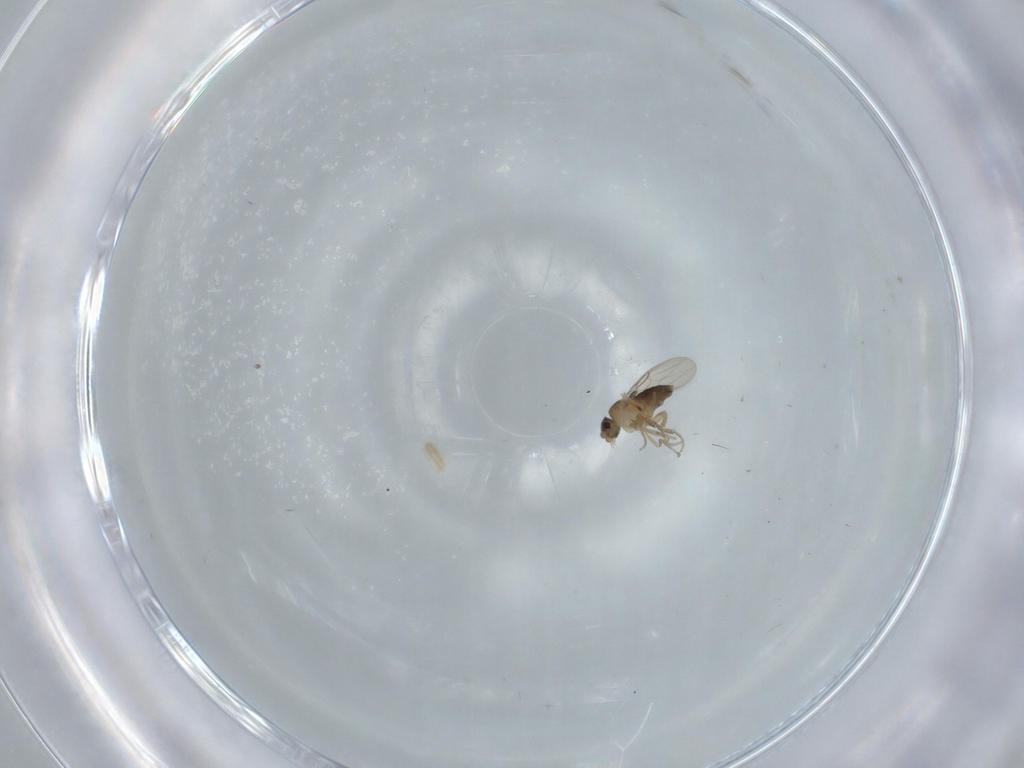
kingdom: Animalia
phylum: Arthropoda
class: Insecta
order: Diptera
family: Phoridae
